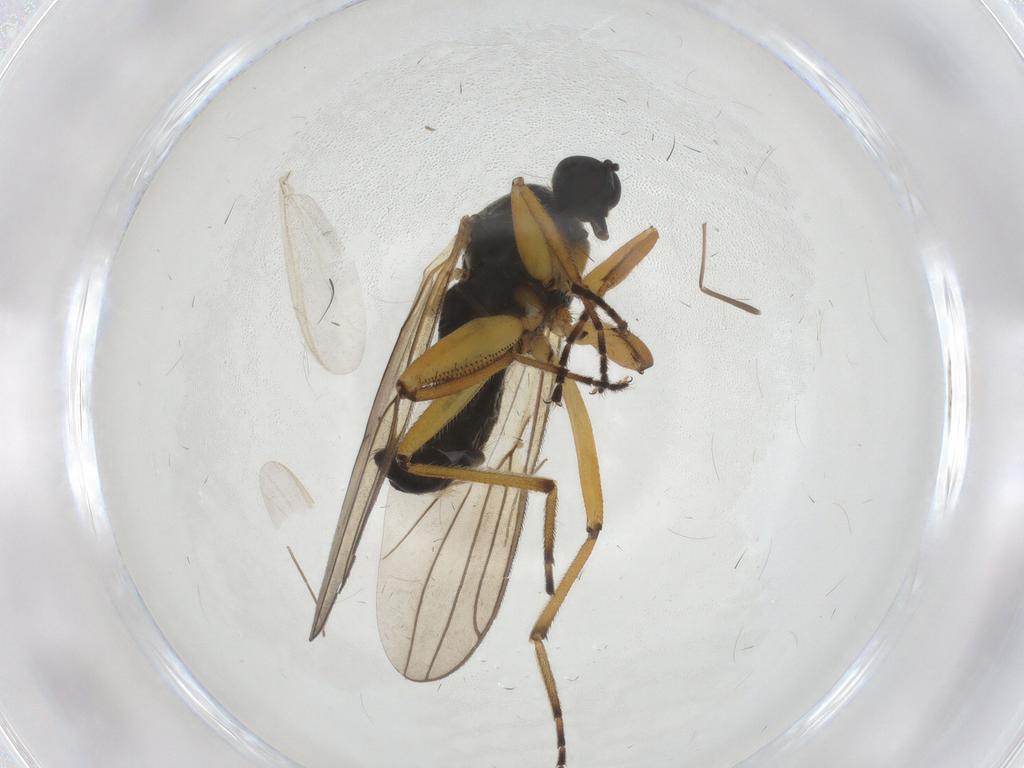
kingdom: Animalia
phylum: Arthropoda
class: Insecta
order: Diptera
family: Hybotidae
